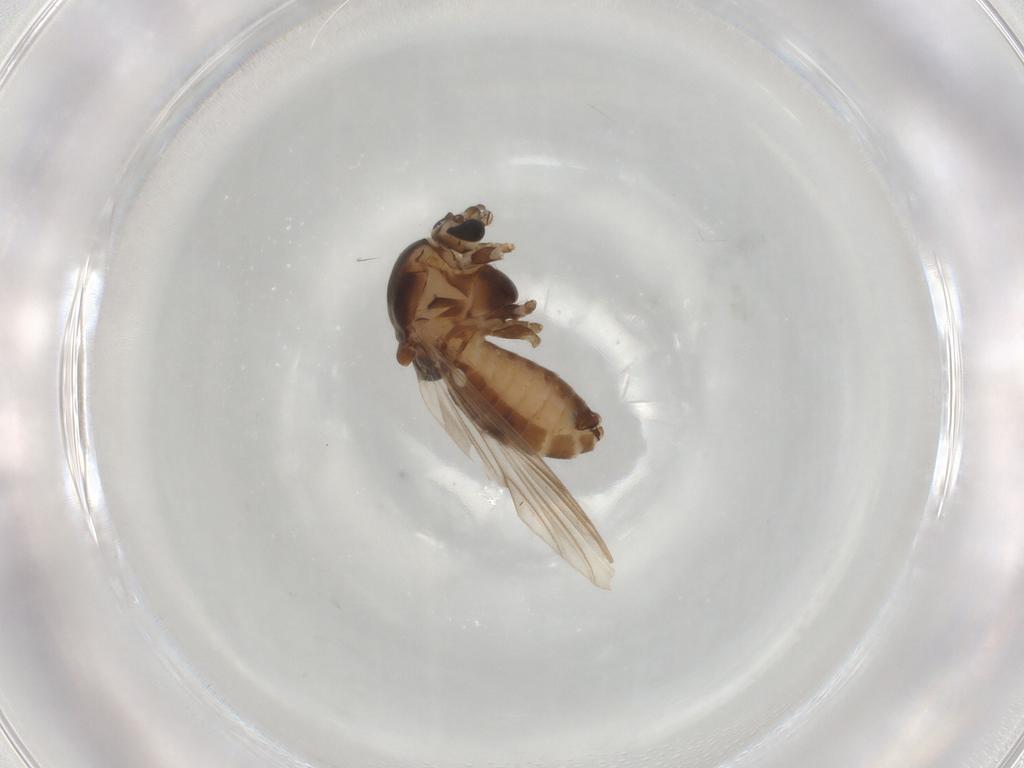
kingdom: Animalia
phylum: Arthropoda
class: Insecta
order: Diptera
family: Chironomidae
